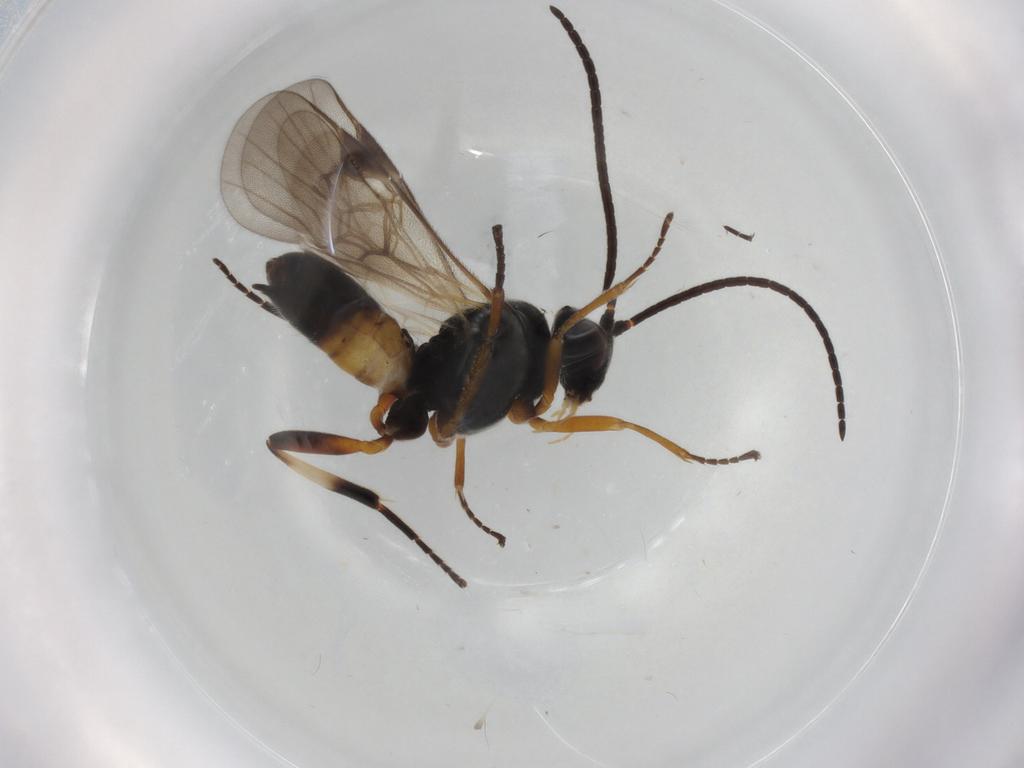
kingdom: Animalia
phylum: Arthropoda
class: Insecta
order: Hymenoptera
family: Braconidae
